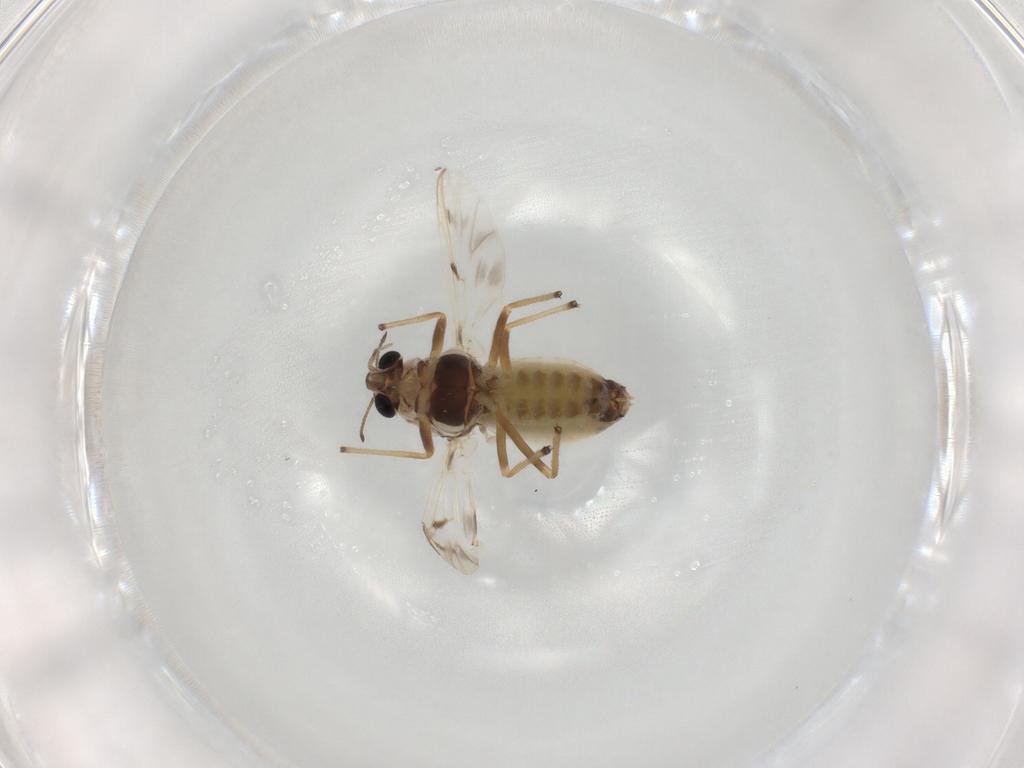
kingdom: Animalia
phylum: Arthropoda
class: Insecta
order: Diptera
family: Chironomidae
